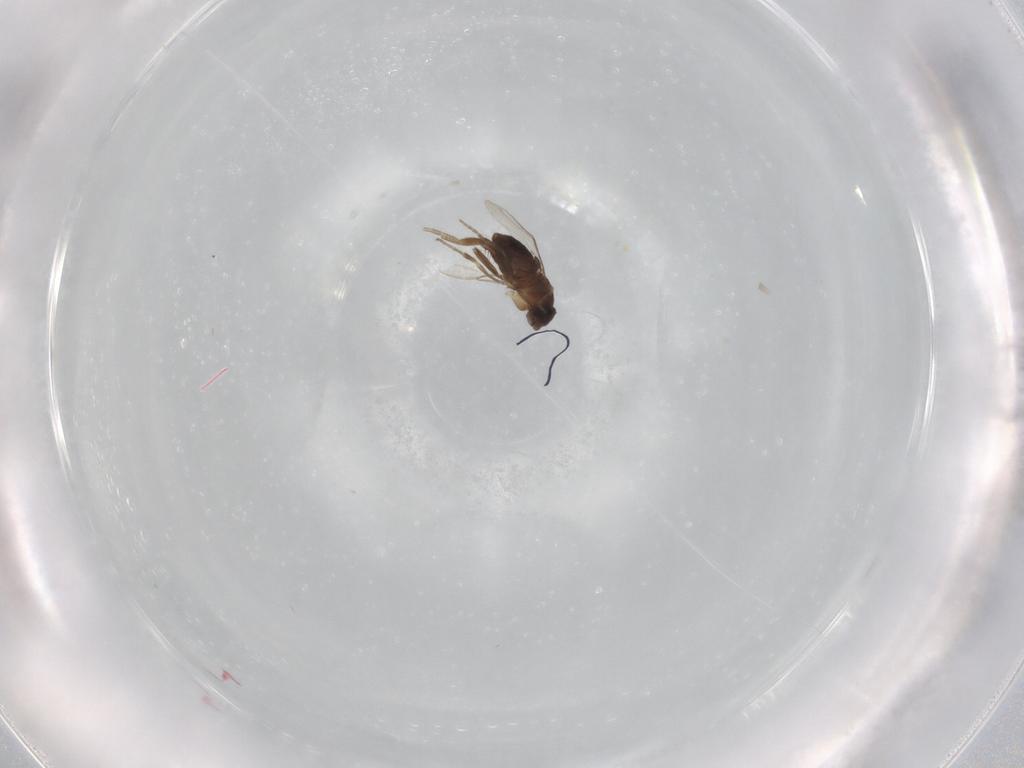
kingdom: Animalia
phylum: Arthropoda
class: Insecta
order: Diptera
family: Phoridae
